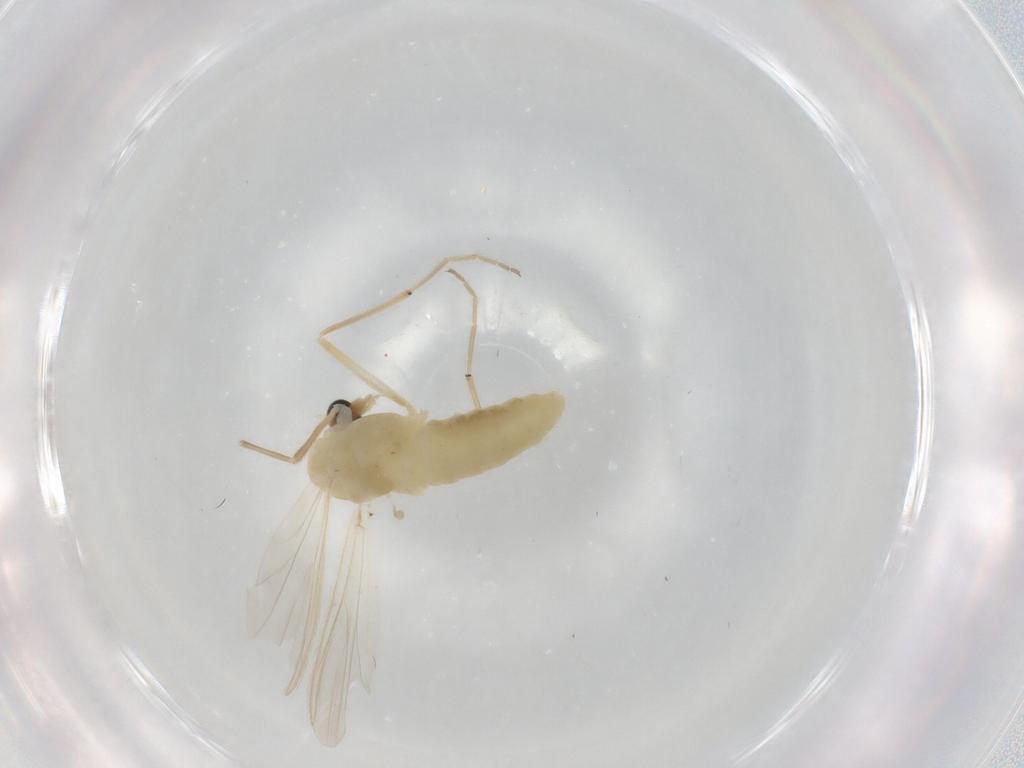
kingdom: Animalia
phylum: Arthropoda
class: Insecta
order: Diptera
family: Chironomidae
